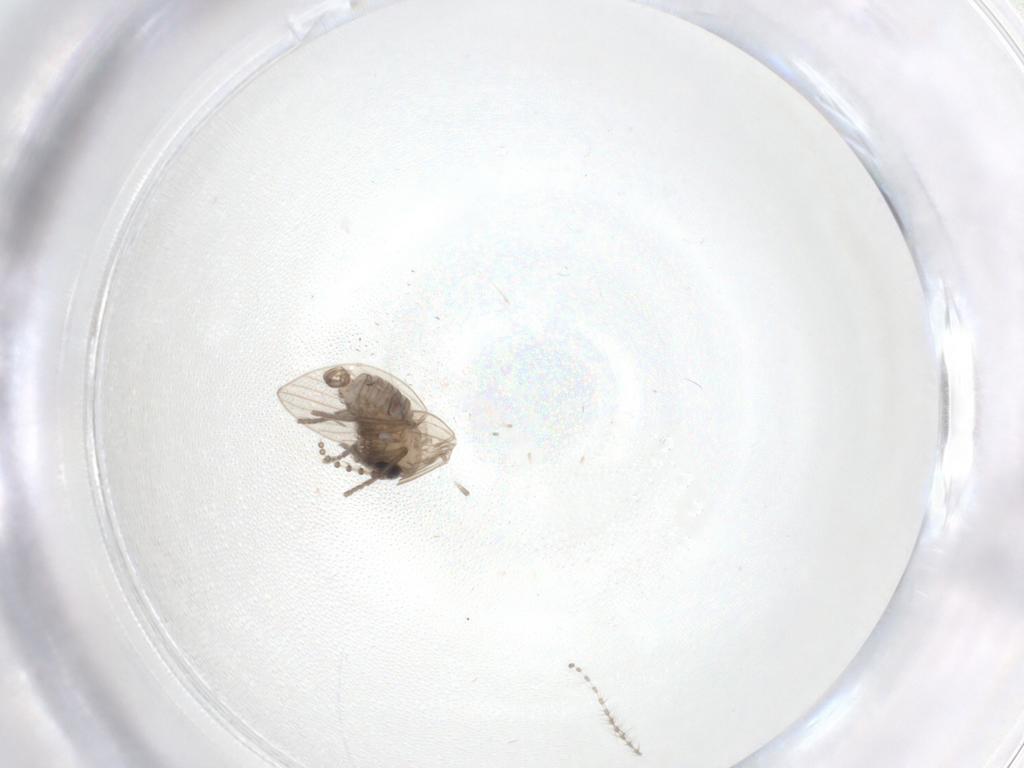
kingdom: Animalia
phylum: Arthropoda
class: Insecta
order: Diptera
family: Psychodidae
